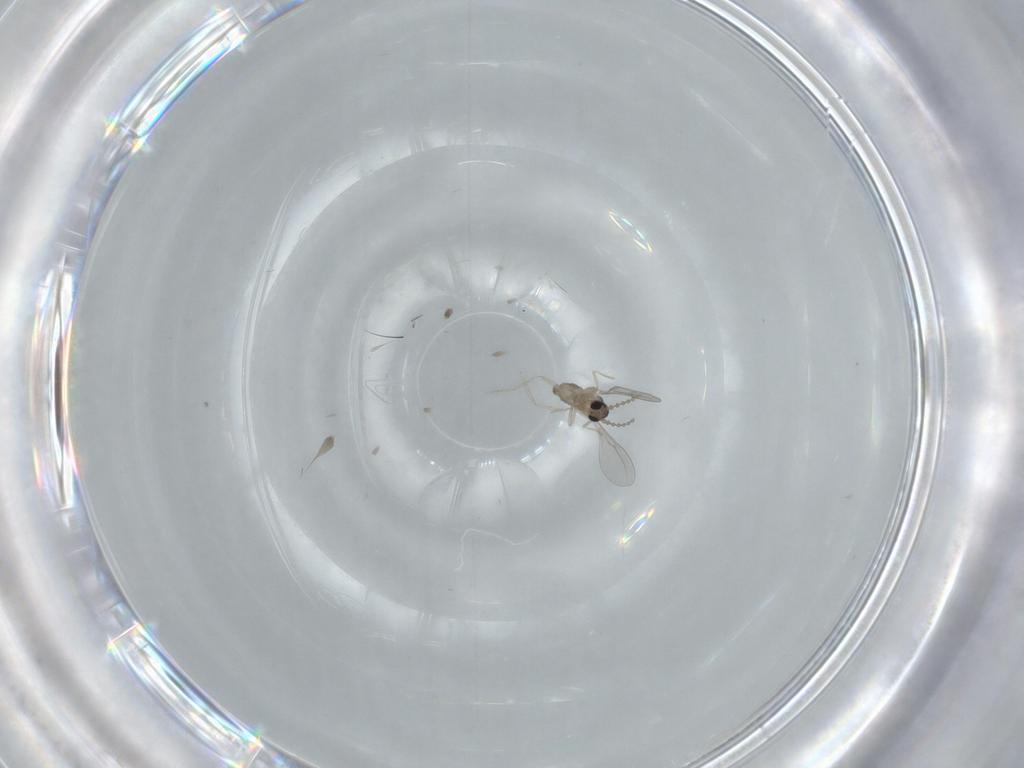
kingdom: Animalia
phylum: Arthropoda
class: Insecta
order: Diptera
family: Cecidomyiidae
